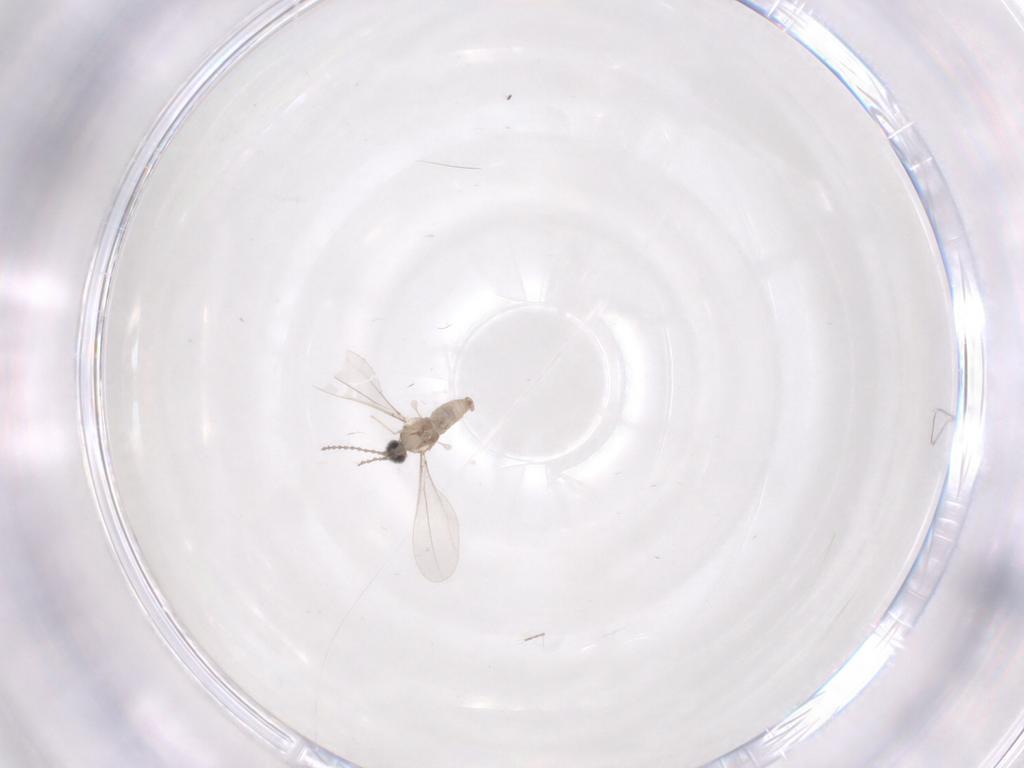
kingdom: Animalia
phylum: Arthropoda
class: Insecta
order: Diptera
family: Cecidomyiidae
